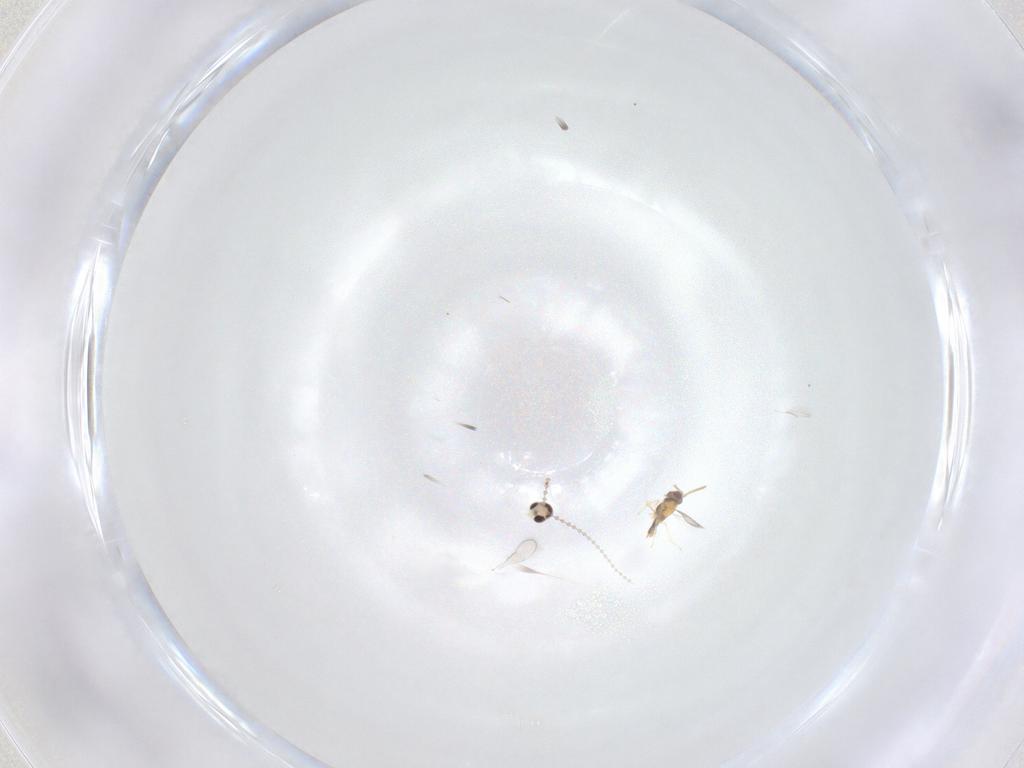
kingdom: Animalia
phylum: Arthropoda
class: Insecta
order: Hymenoptera
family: Aphelinidae
